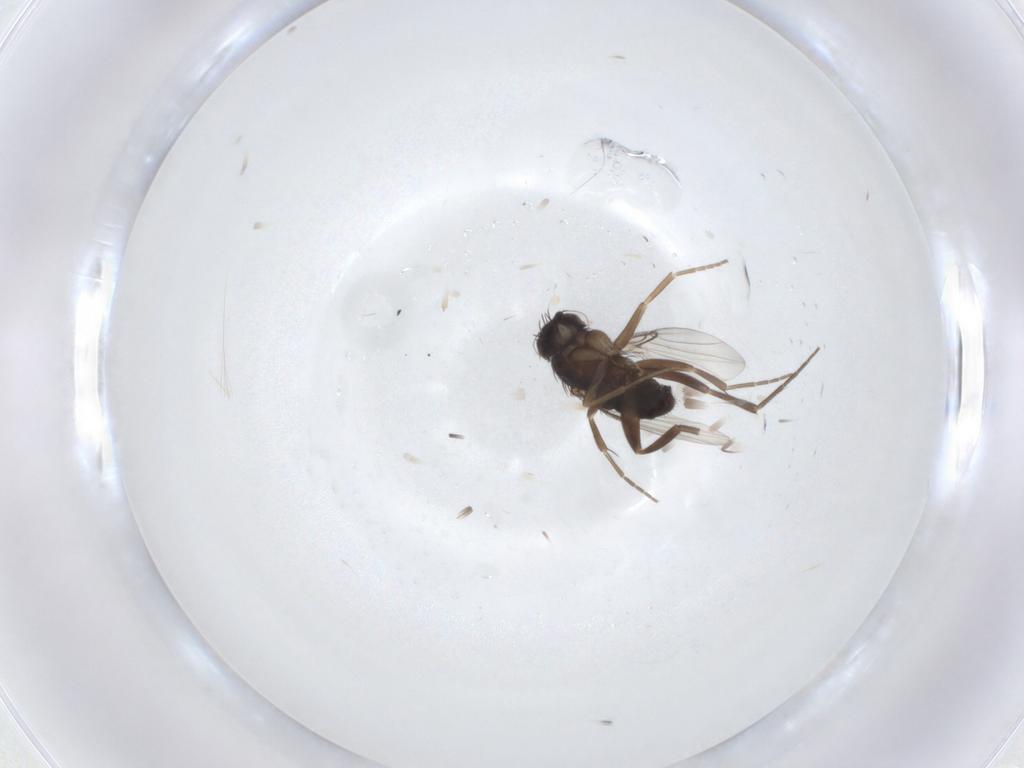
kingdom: Animalia
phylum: Arthropoda
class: Insecta
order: Diptera
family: Phoridae
